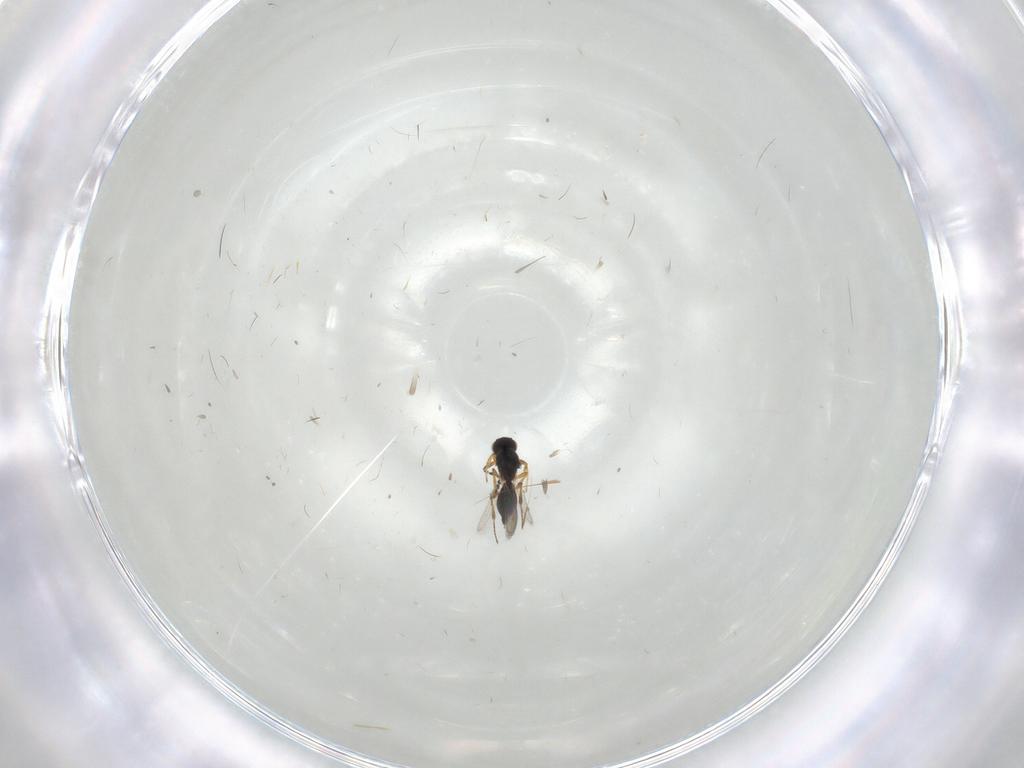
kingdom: Animalia
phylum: Arthropoda
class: Insecta
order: Hymenoptera
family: Platygastridae
